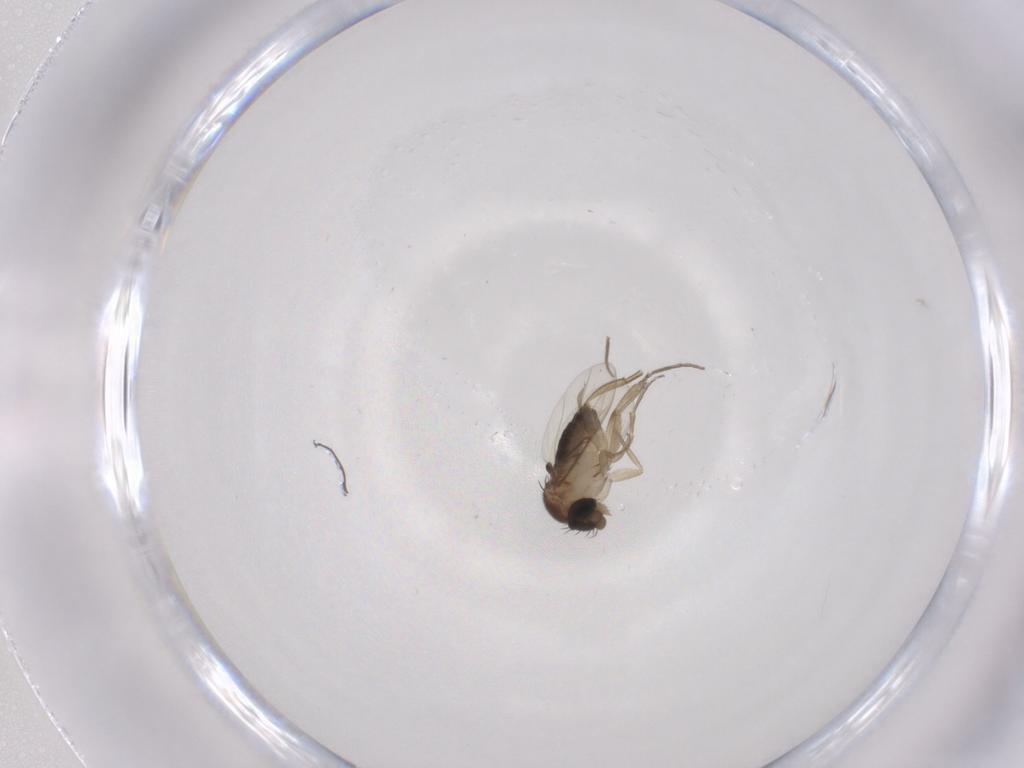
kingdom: Animalia
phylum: Arthropoda
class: Insecta
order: Diptera
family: Phoridae
